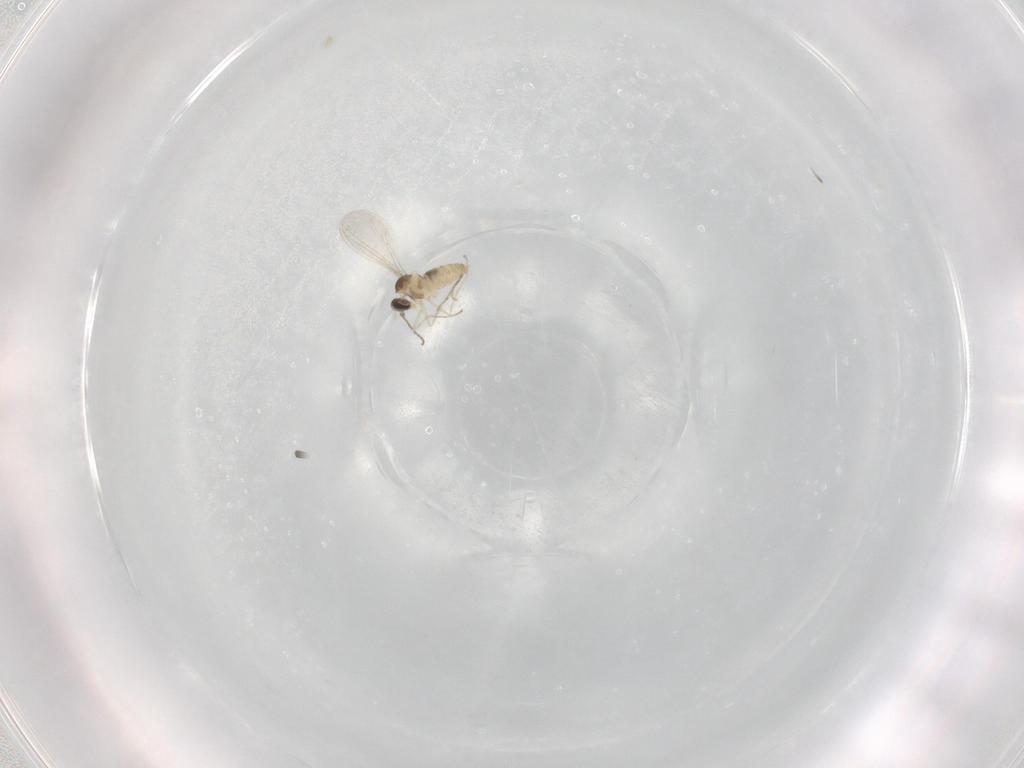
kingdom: Animalia
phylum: Arthropoda
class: Insecta
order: Diptera
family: Cecidomyiidae
